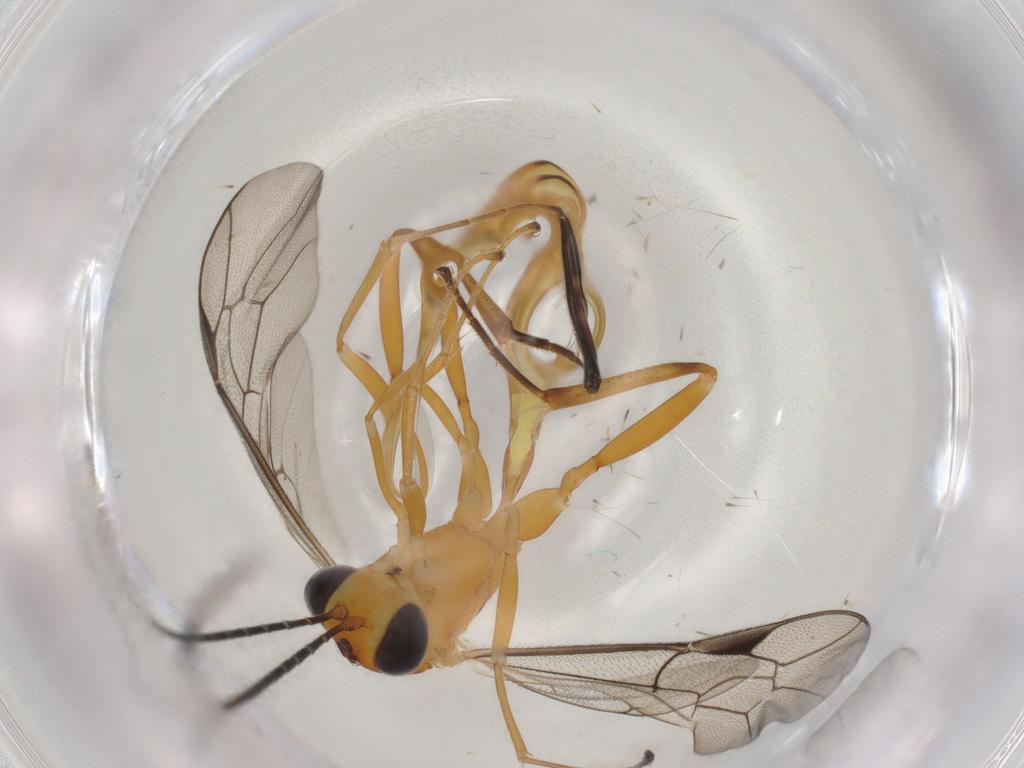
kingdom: Animalia
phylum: Arthropoda
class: Insecta
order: Hymenoptera
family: Ichneumonidae
